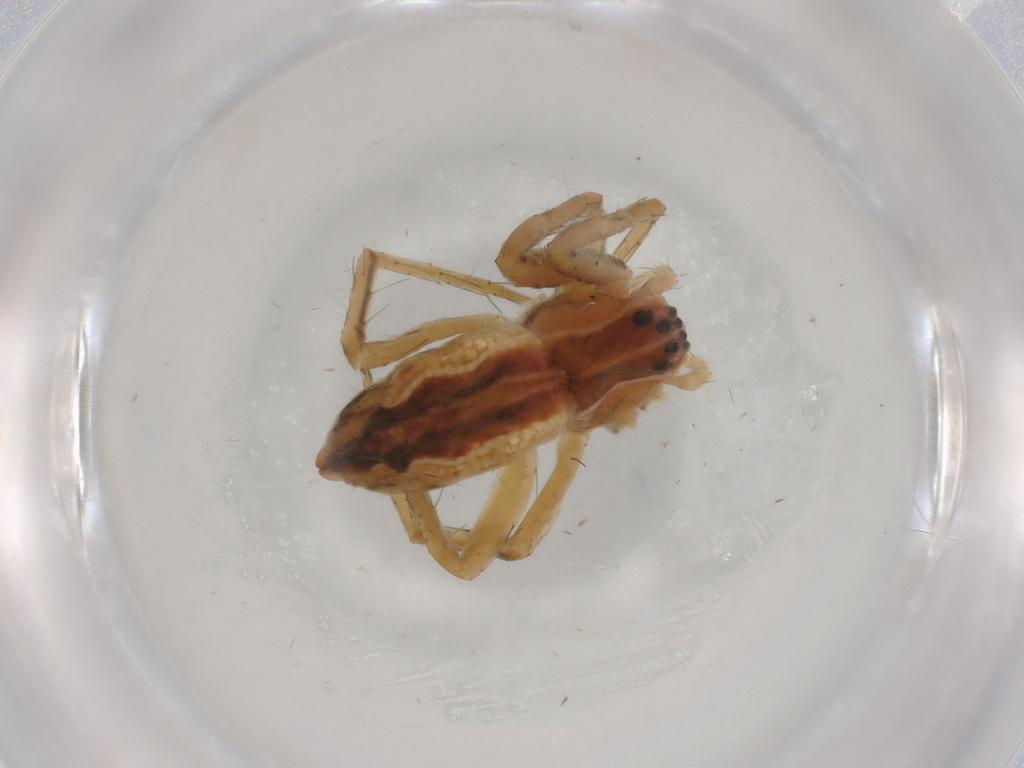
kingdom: Animalia
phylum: Arthropoda
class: Arachnida
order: Araneae
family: Pisauridae
